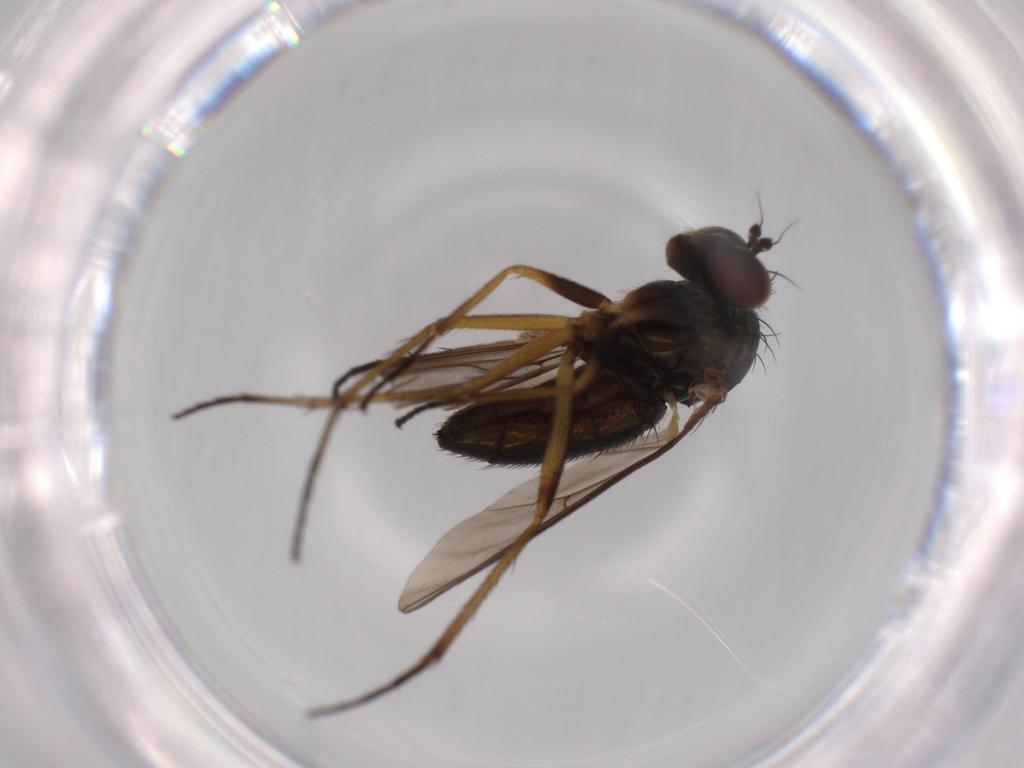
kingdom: Animalia
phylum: Arthropoda
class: Insecta
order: Diptera
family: Dolichopodidae
